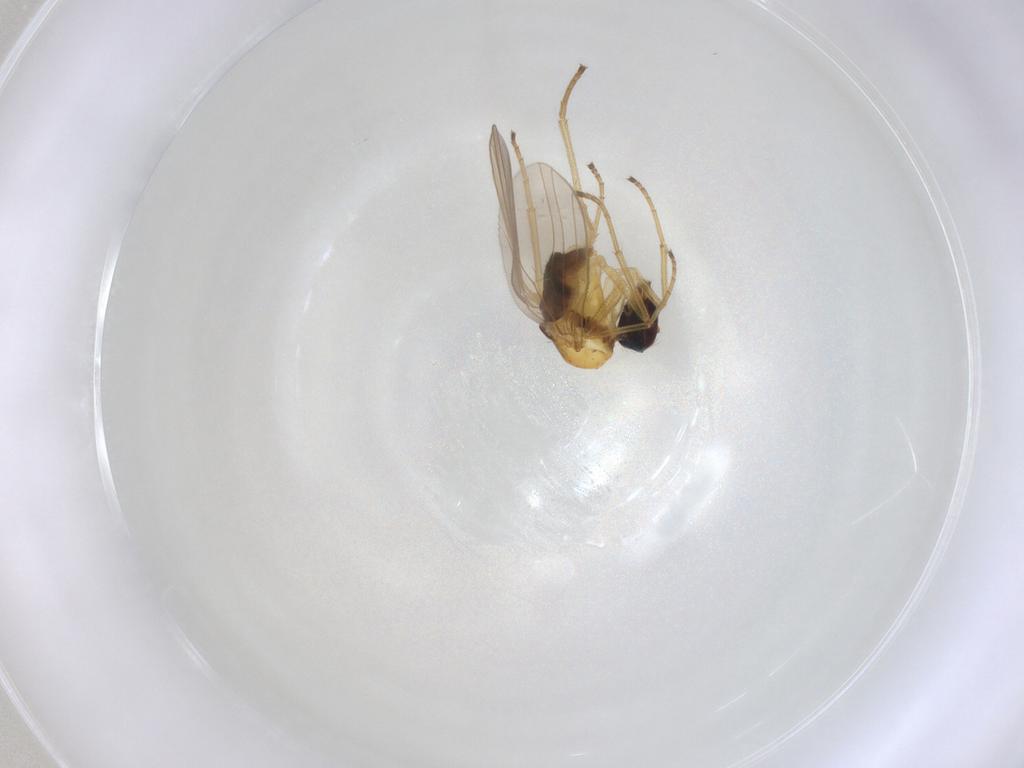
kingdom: Animalia
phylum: Arthropoda
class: Insecta
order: Diptera
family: Dolichopodidae
